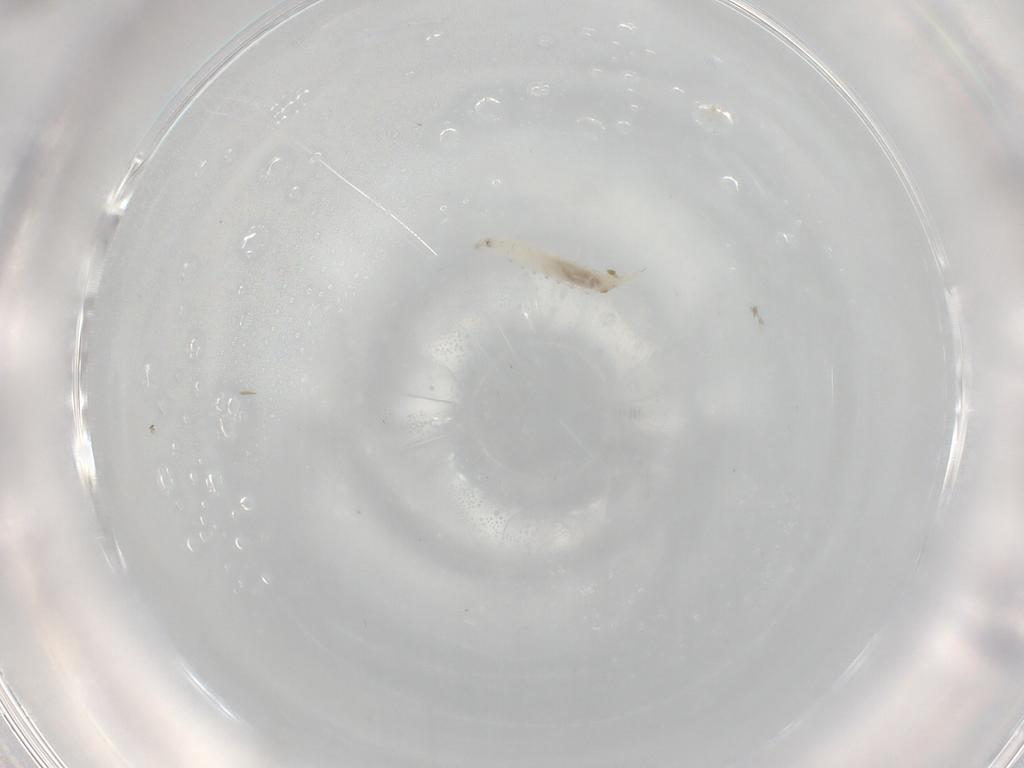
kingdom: Animalia
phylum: Arthropoda
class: Insecta
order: Diptera
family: Ceratopogonidae
